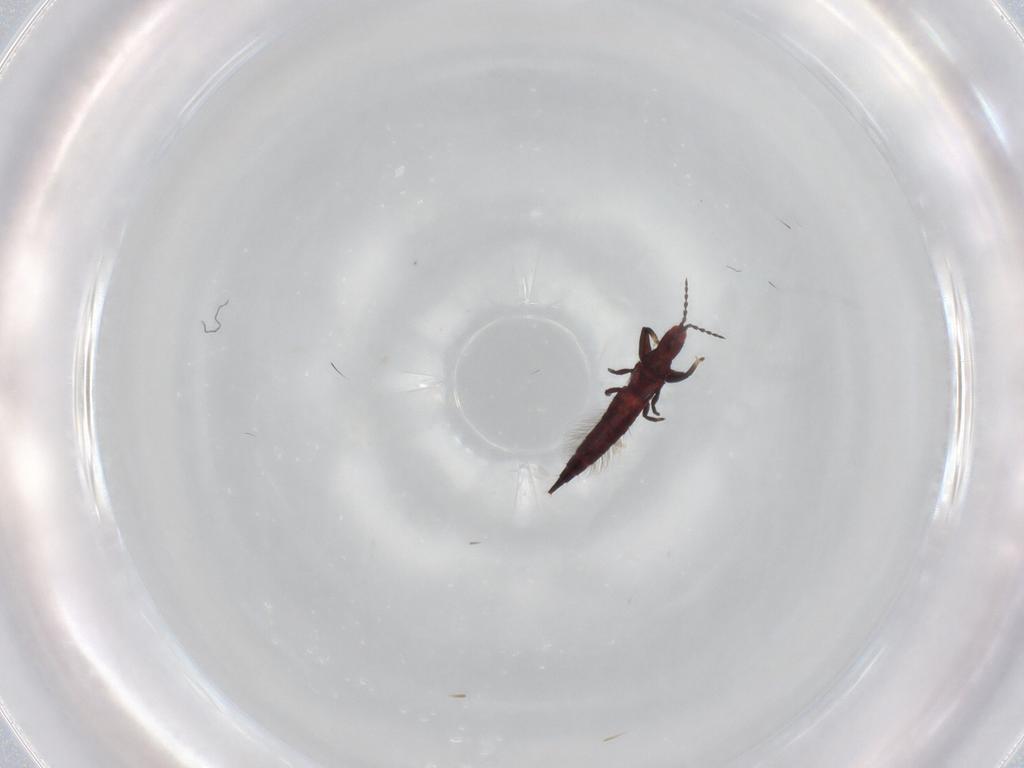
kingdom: Animalia
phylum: Arthropoda
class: Insecta
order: Thysanoptera
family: Phlaeothripidae
